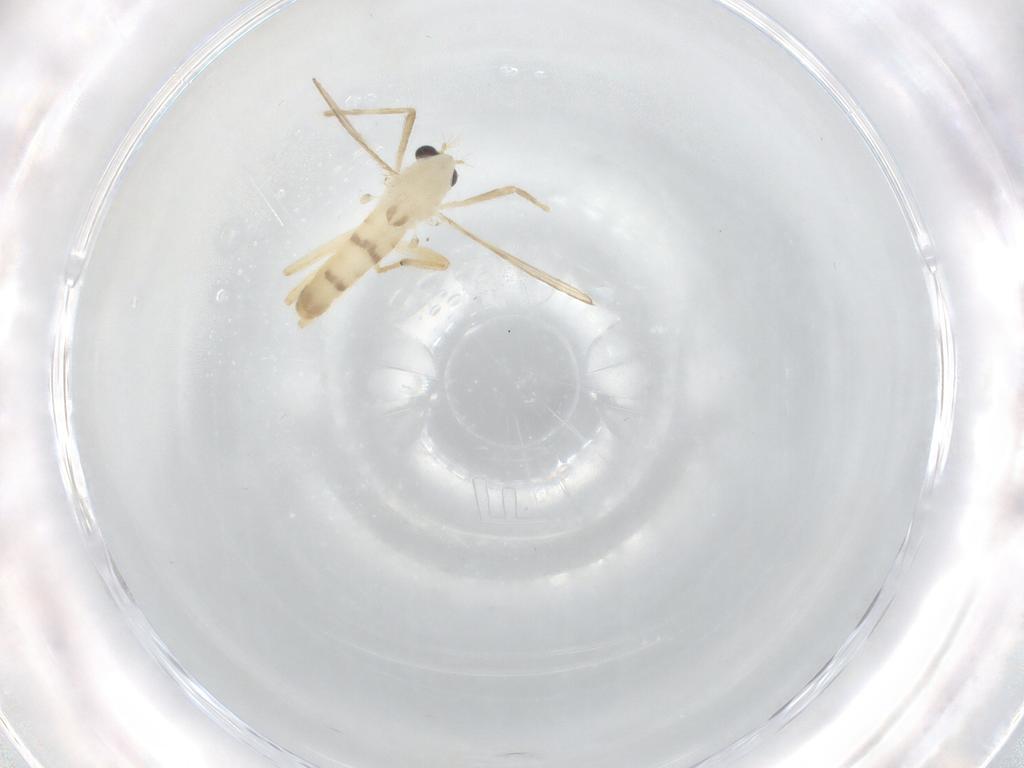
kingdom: Animalia
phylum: Arthropoda
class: Insecta
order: Diptera
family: Chironomidae
